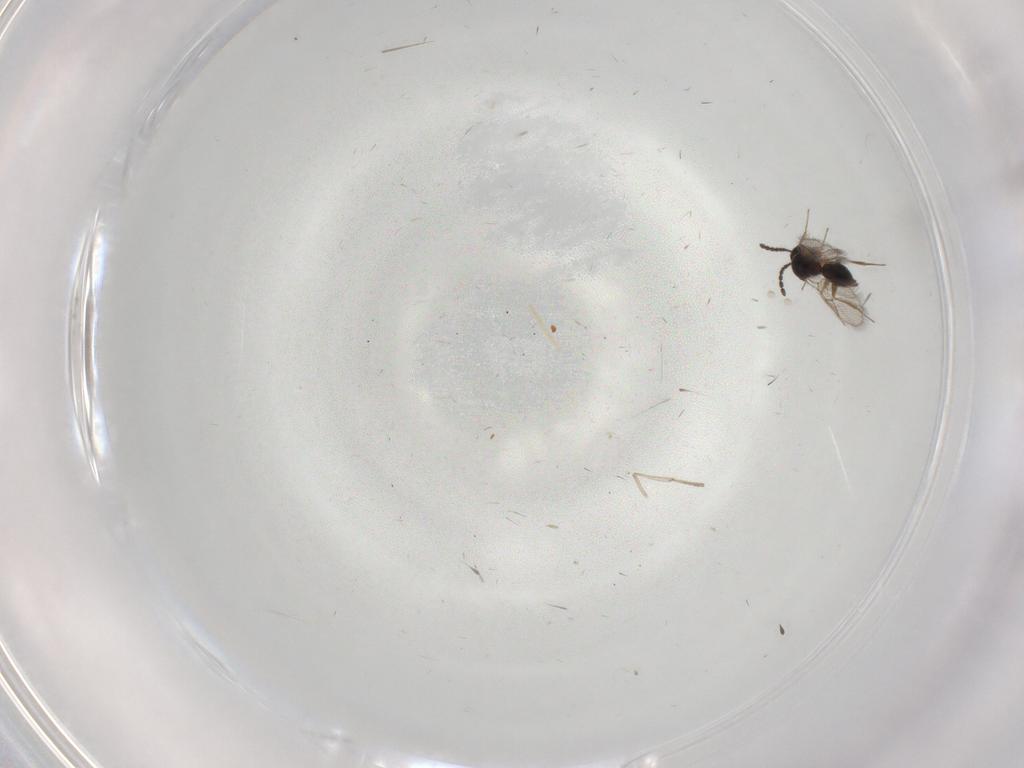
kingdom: Animalia
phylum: Arthropoda
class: Insecta
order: Hymenoptera
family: Figitidae
